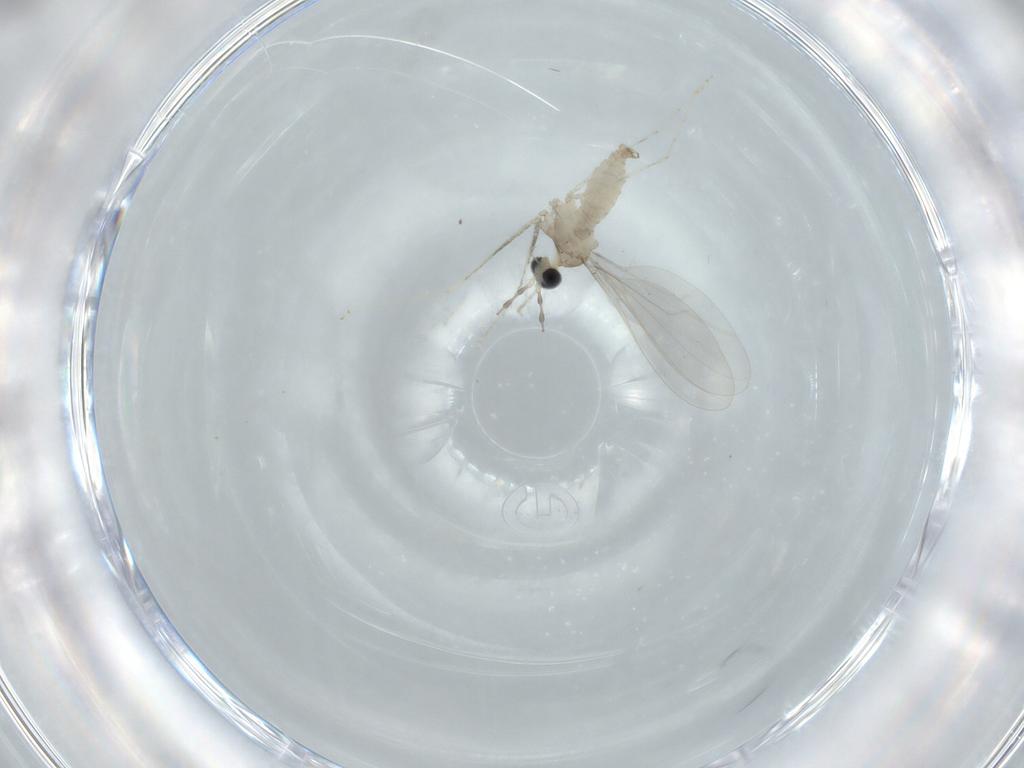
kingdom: Animalia
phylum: Arthropoda
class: Insecta
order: Diptera
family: Cecidomyiidae
